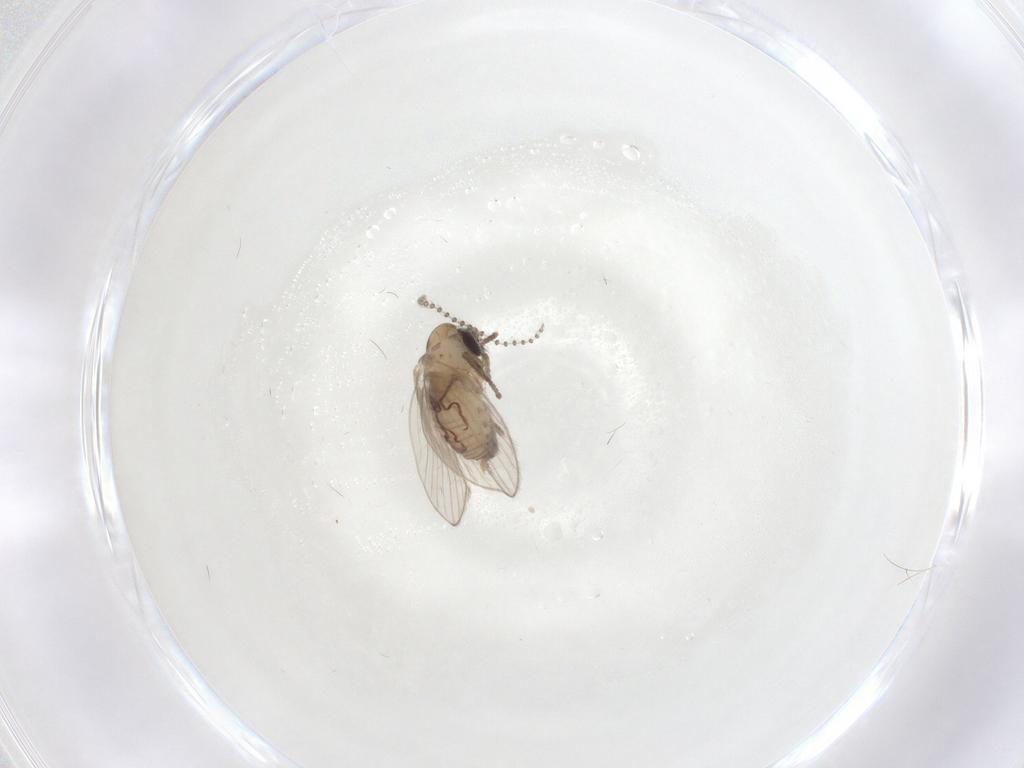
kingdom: Animalia
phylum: Arthropoda
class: Insecta
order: Diptera
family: Psychodidae
